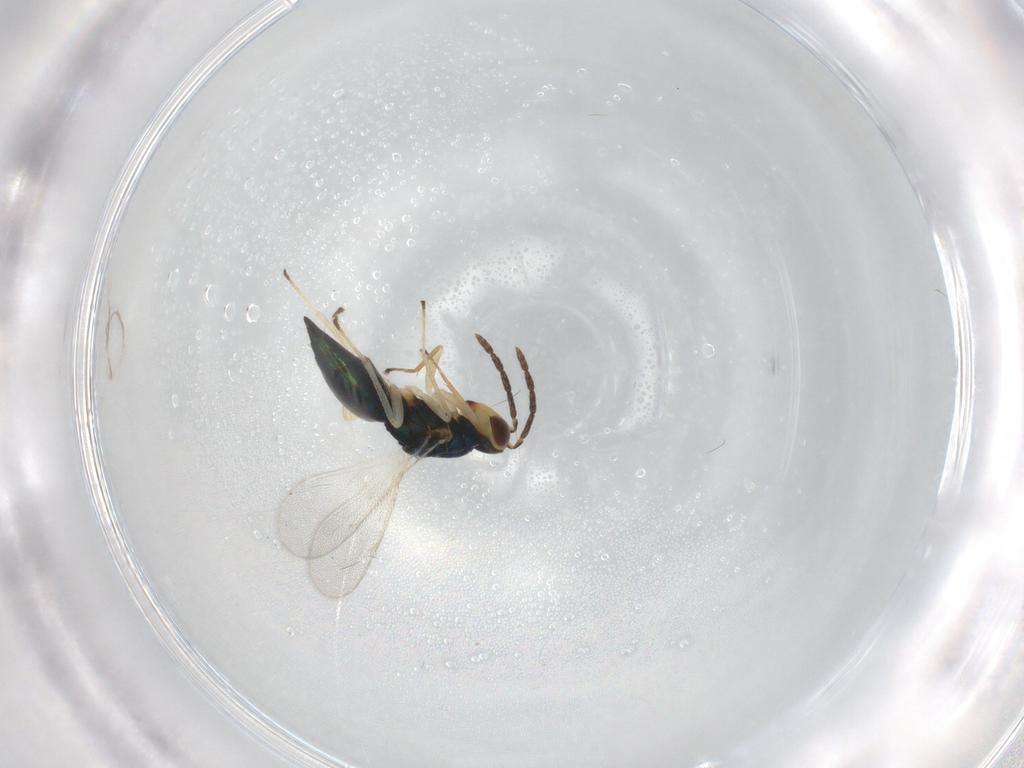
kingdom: Animalia
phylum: Arthropoda
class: Insecta
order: Hymenoptera
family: Eulophidae
